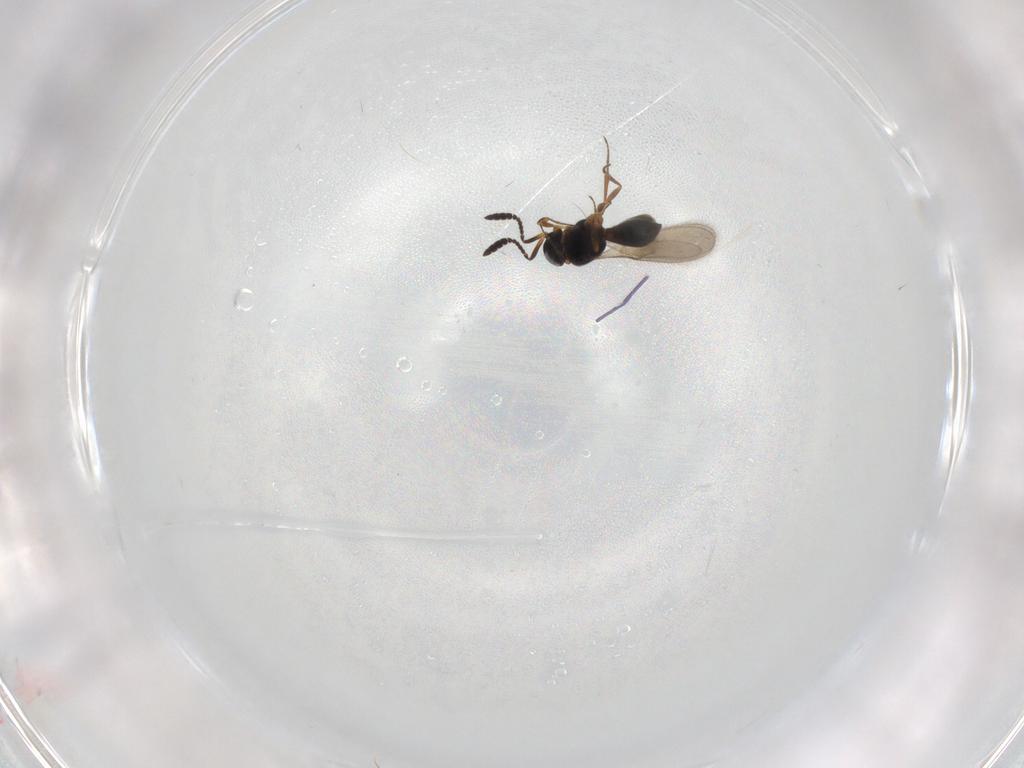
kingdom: Animalia
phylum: Arthropoda
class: Insecta
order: Hymenoptera
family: Scelionidae
